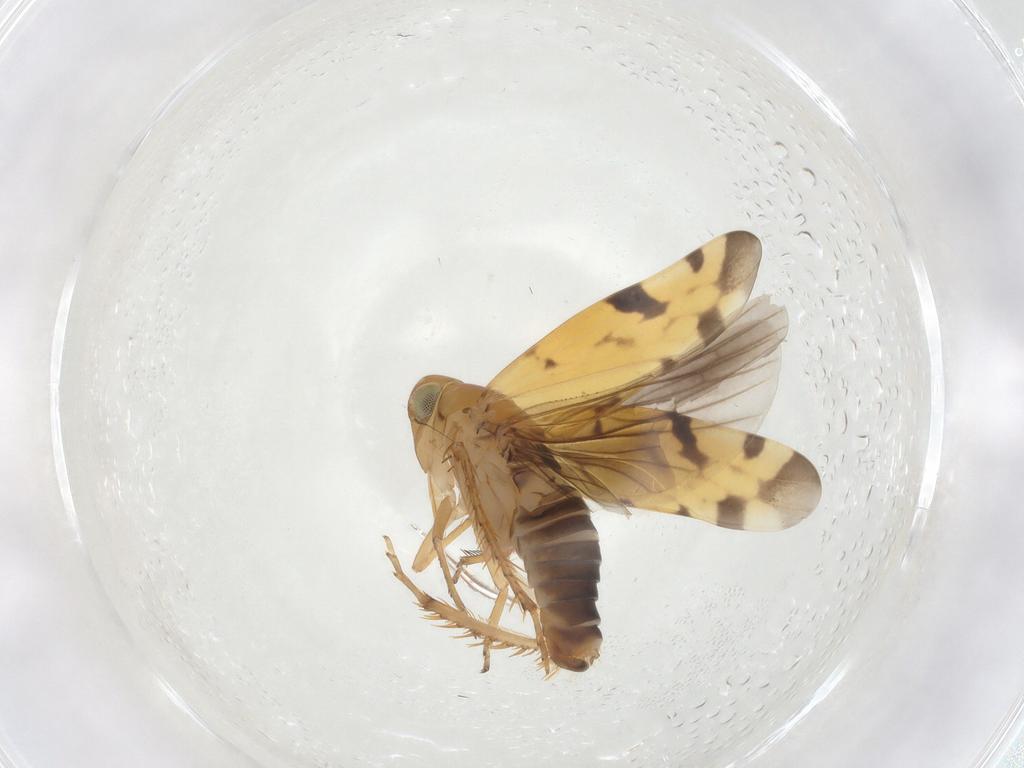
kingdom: Animalia
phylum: Arthropoda
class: Insecta
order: Hemiptera
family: Cicadellidae
